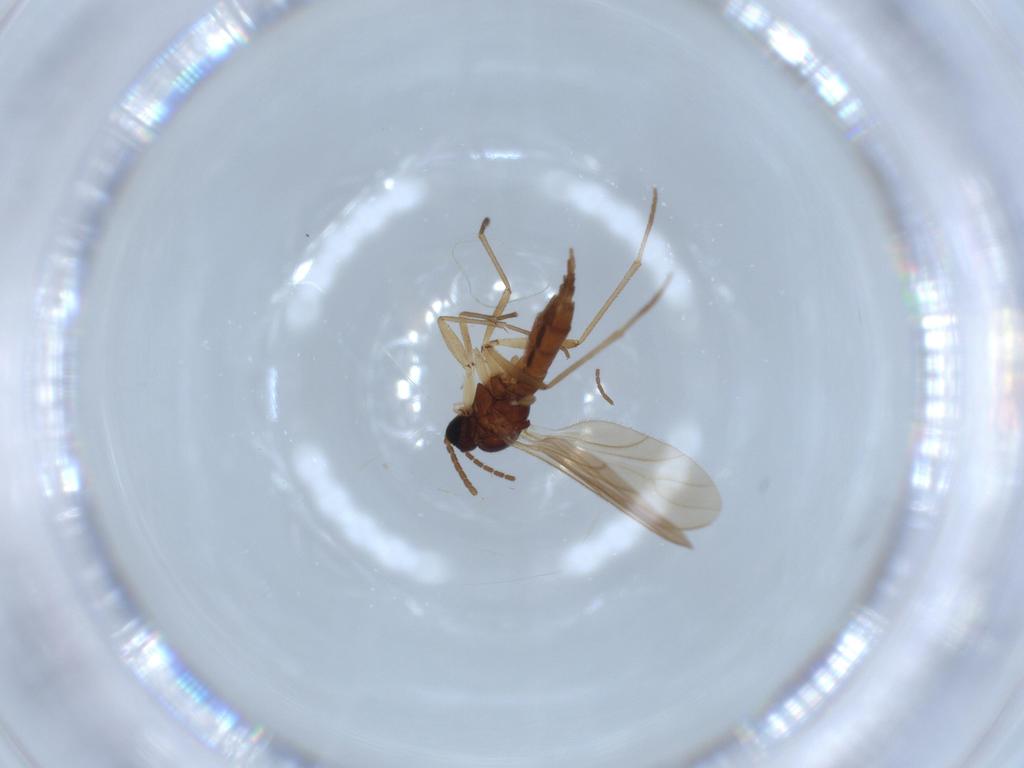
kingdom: Animalia
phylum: Arthropoda
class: Insecta
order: Diptera
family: Sciaridae
